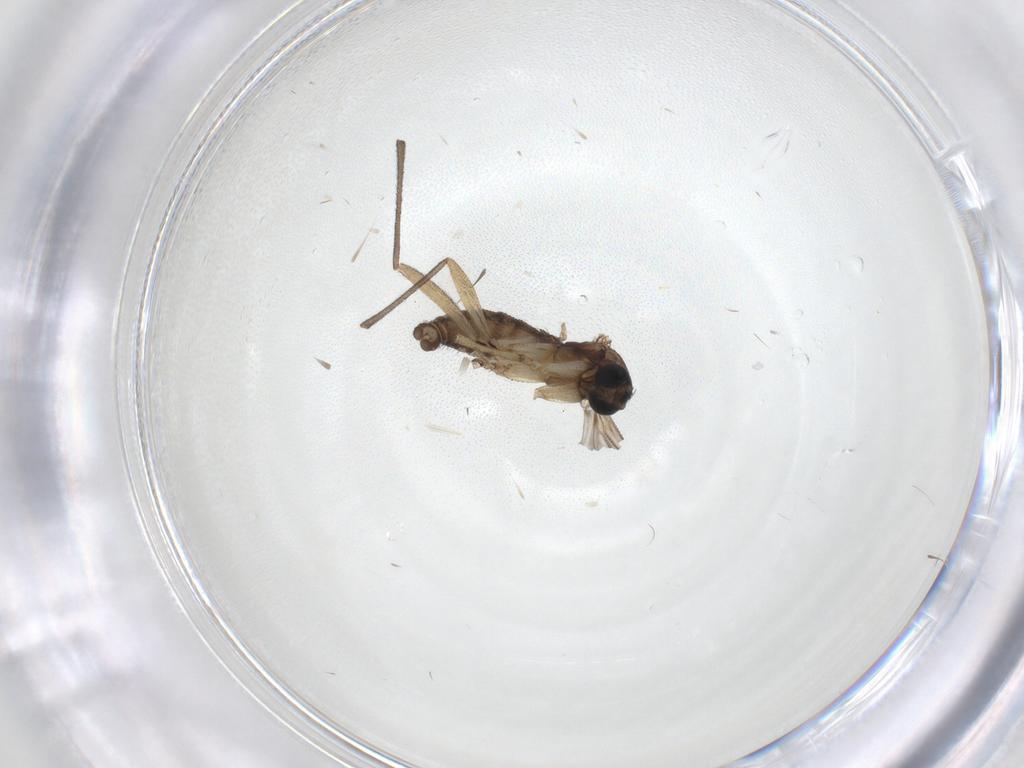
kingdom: Animalia
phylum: Arthropoda
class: Insecta
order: Diptera
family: Sciaridae
